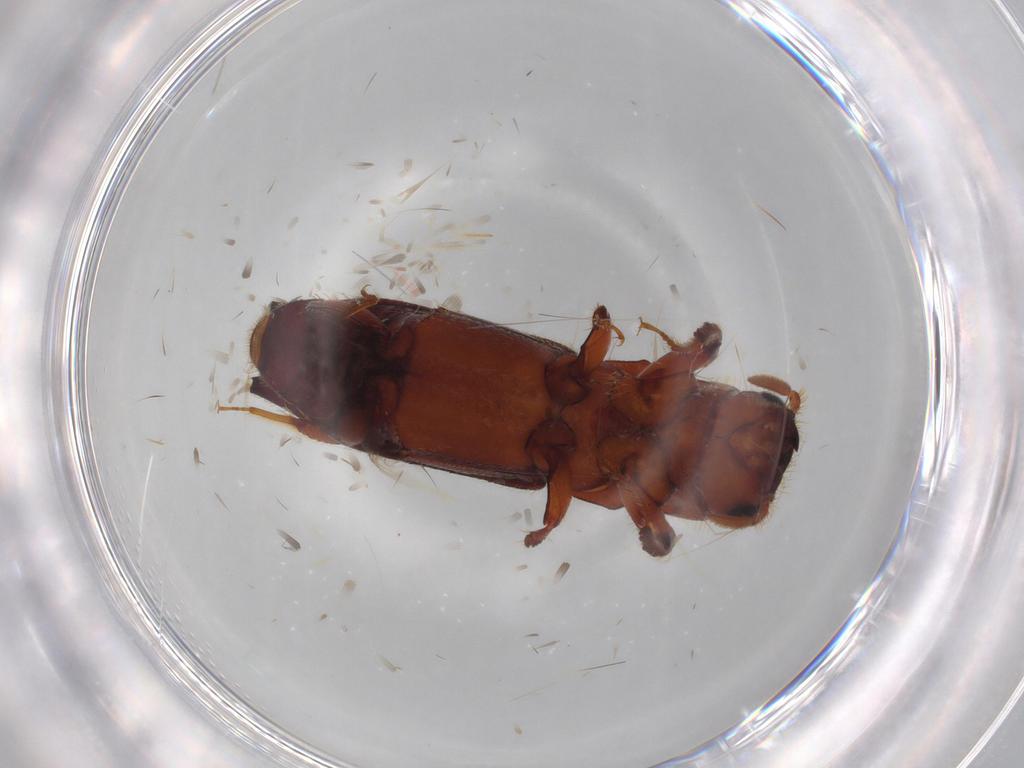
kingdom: Animalia
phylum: Arthropoda
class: Insecta
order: Coleoptera
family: Curculionidae
